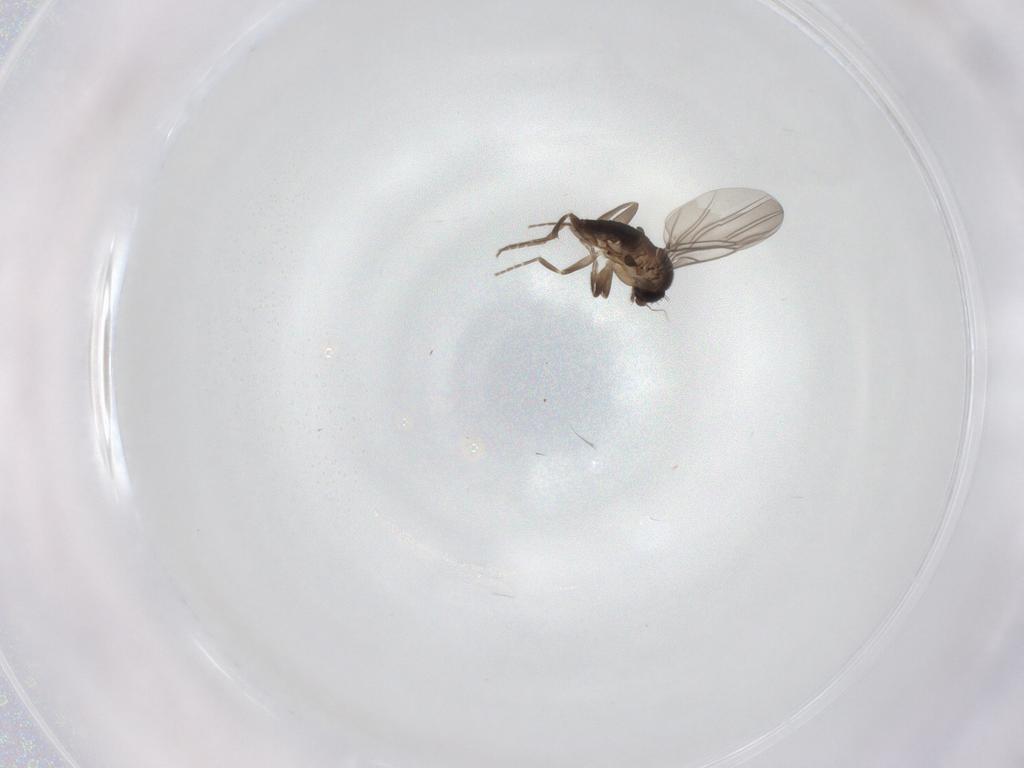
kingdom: Animalia
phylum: Arthropoda
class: Insecta
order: Diptera
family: Phoridae
